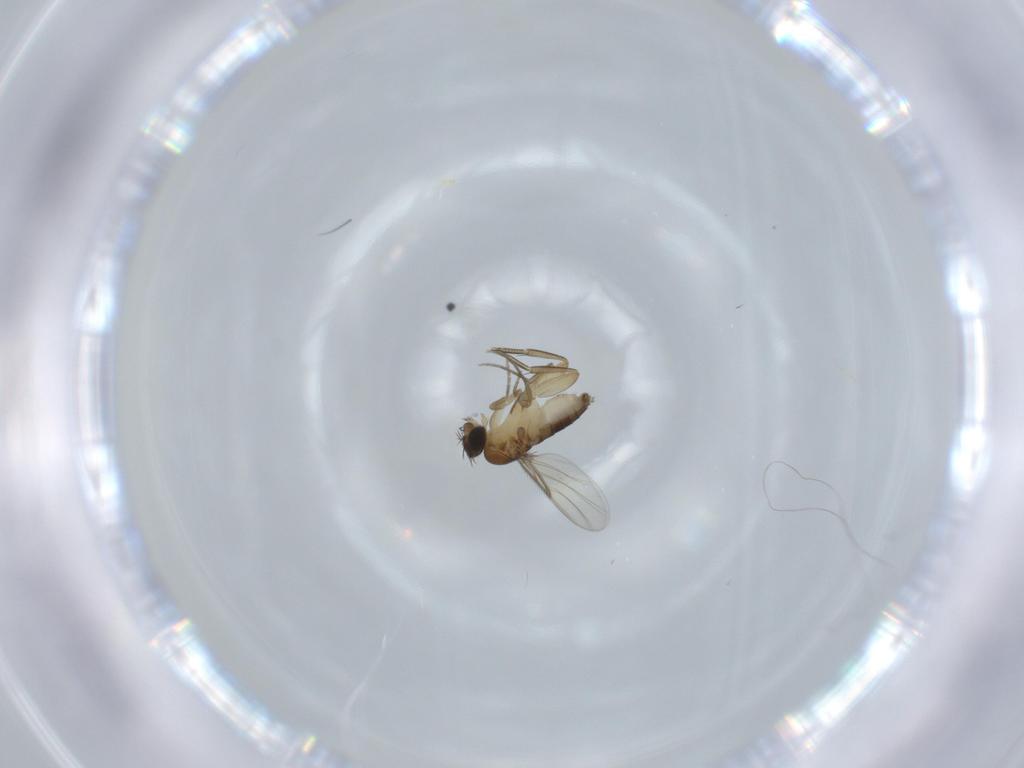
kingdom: Animalia
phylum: Arthropoda
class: Insecta
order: Diptera
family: Phoridae
